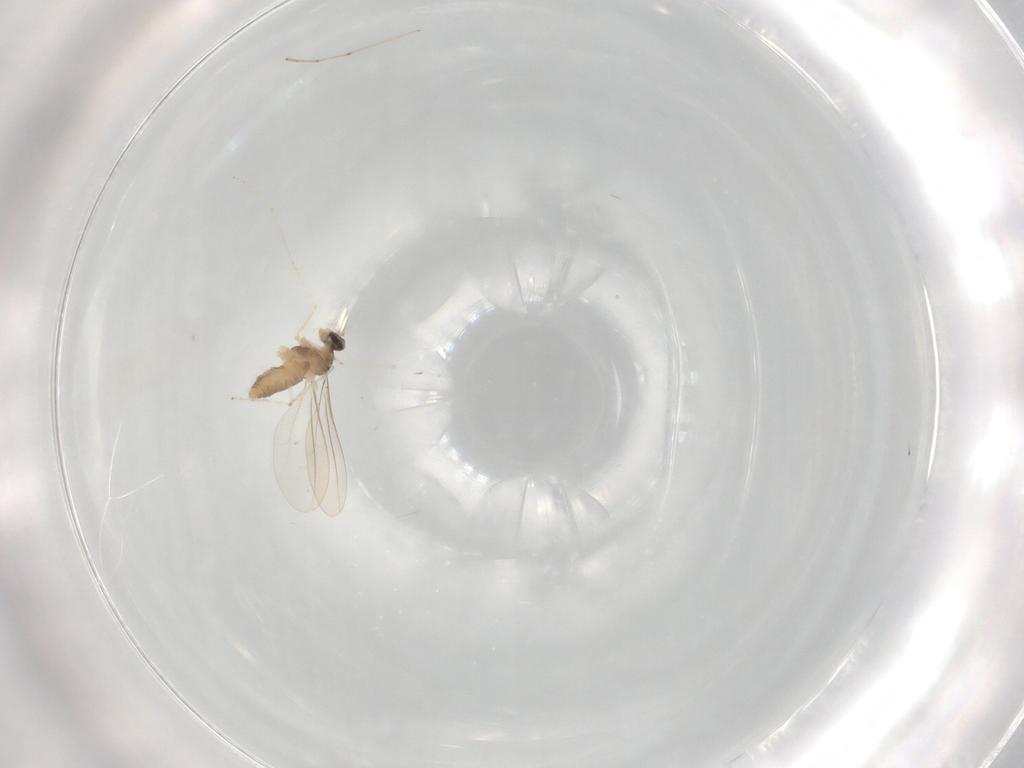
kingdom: Animalia
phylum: Arthropoda
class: Insecta
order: Diptera
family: Cecidomyiidae
